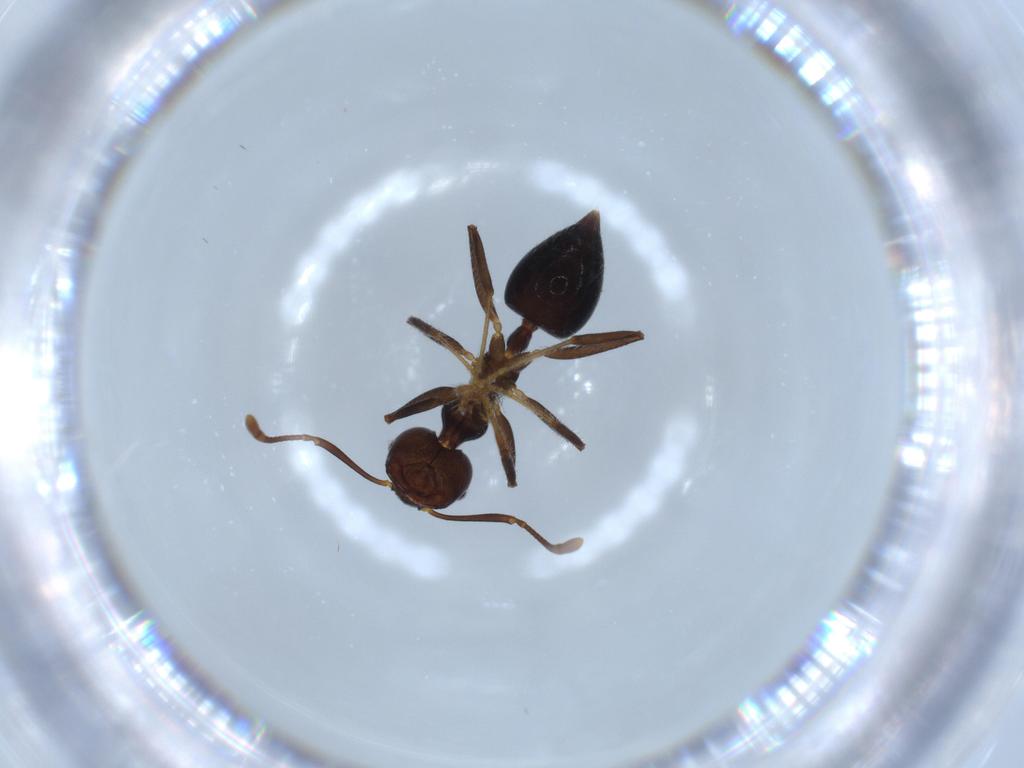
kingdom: Animalia
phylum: Arthropoda
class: Insecta
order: Hymenoptera
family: Formicidae
